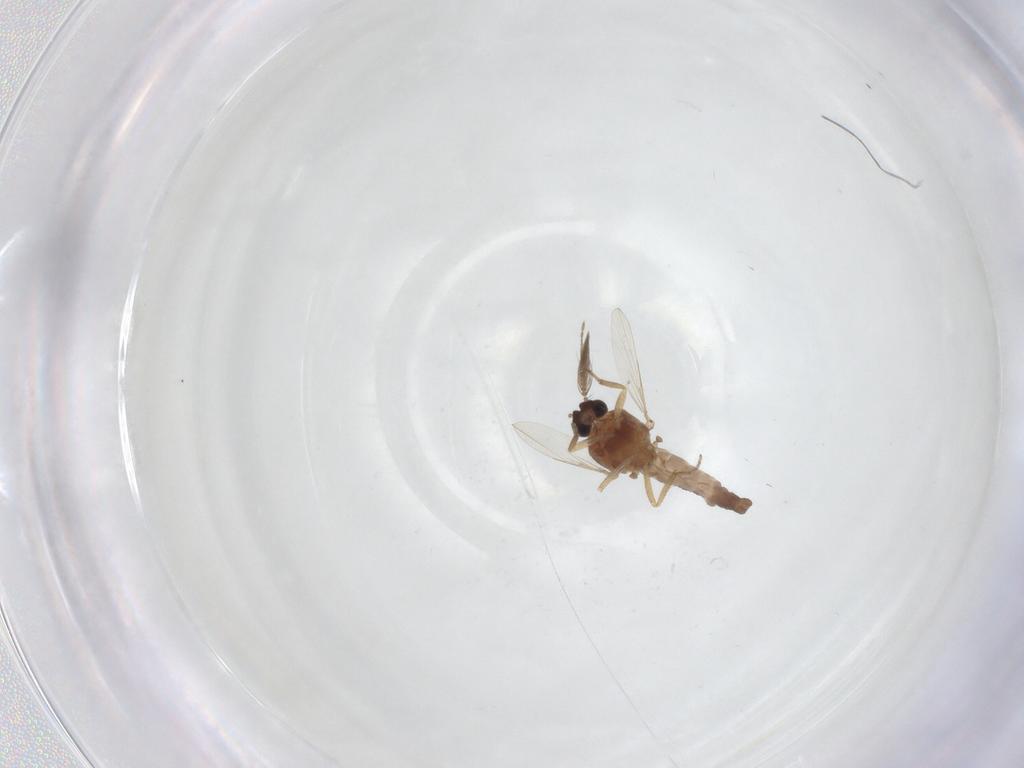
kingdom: Animalia
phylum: Arthropoda
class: Insecta
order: Diptera
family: Ceratopogonidae
